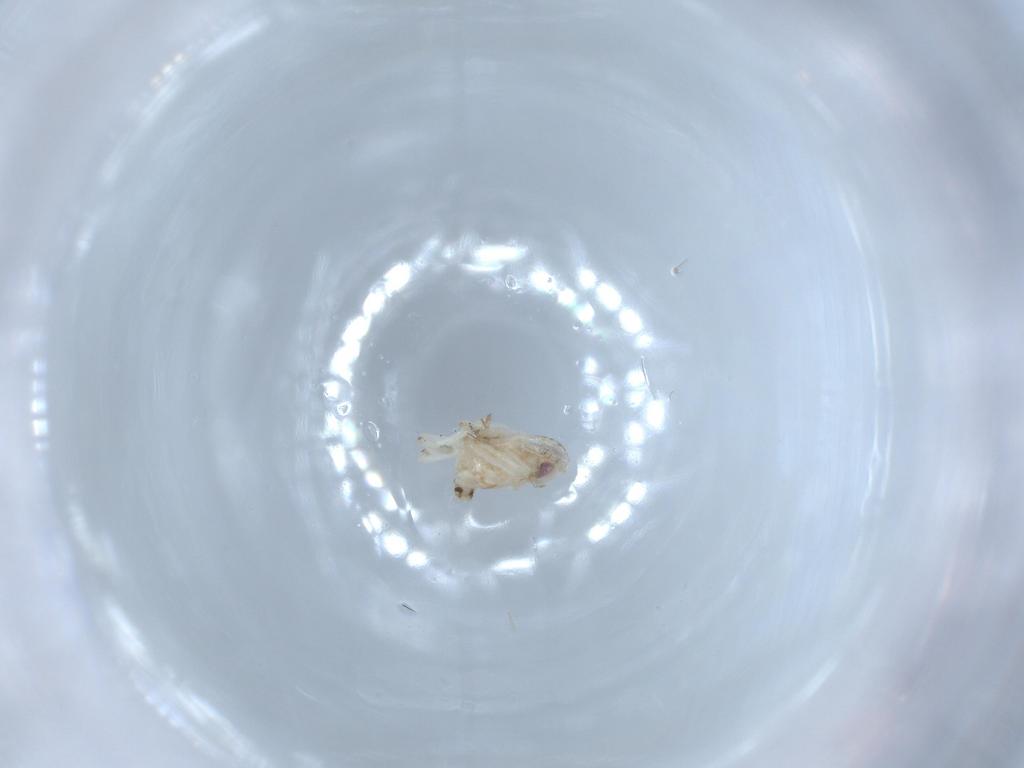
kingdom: Animalia
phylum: Arthropoda
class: Insecta
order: Hemiptera
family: Nogodinidae
